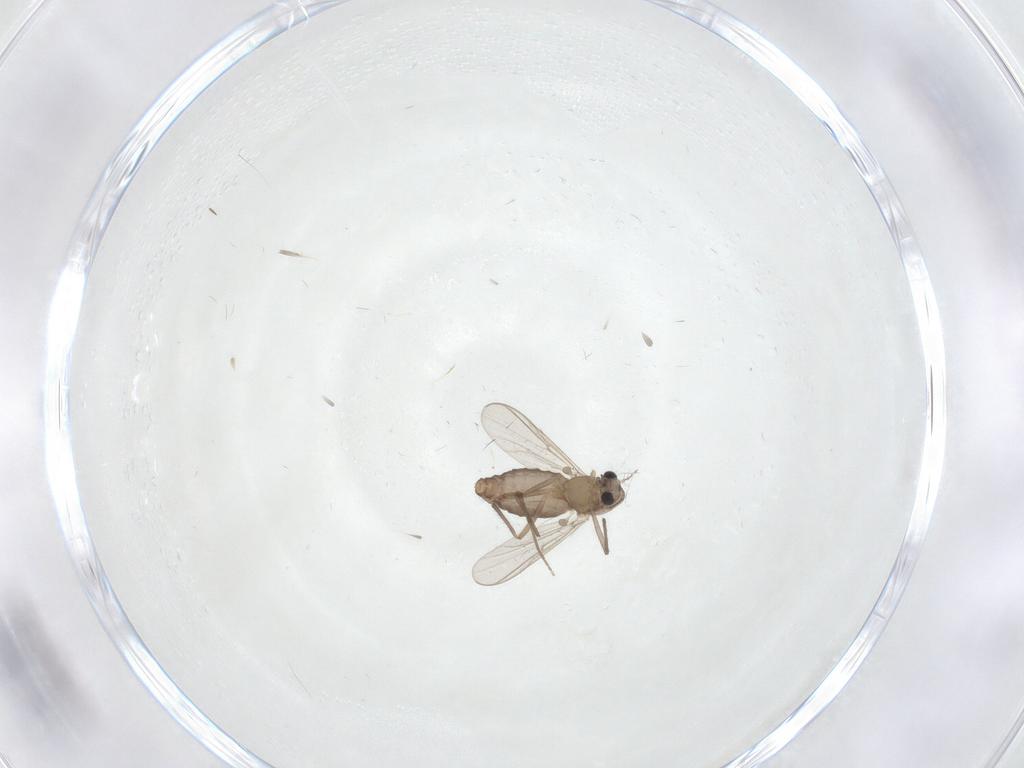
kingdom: Animalia
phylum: Arthropoda
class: Insecta
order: Diptera
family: Chironomidae
